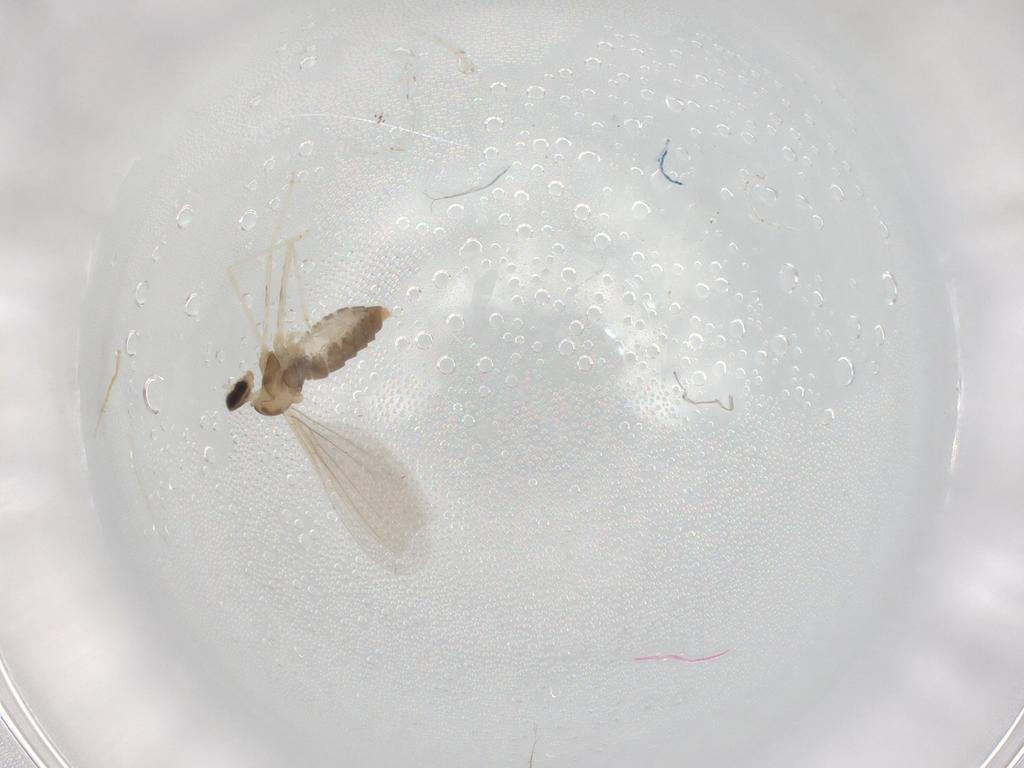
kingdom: Animalia
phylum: Arthropoda
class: Insecta
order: Diptera
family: Cecidomyiidae
